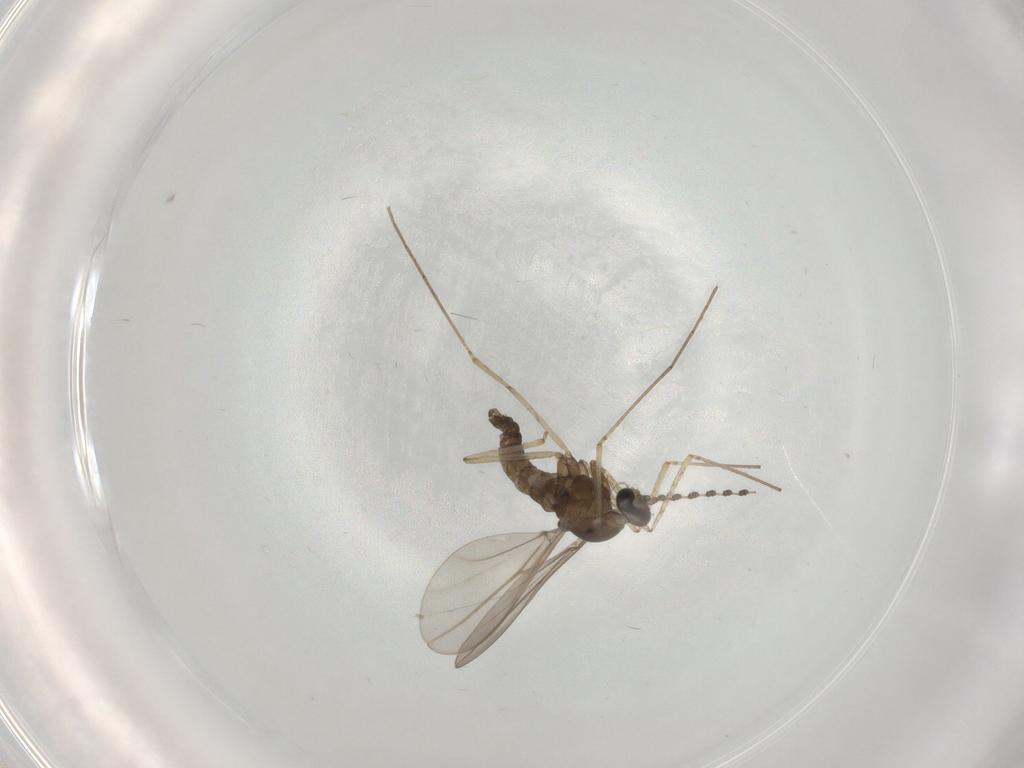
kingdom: Animalia
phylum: Arthropoda
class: Insecta
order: Diptera
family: Cecidomyiidae
